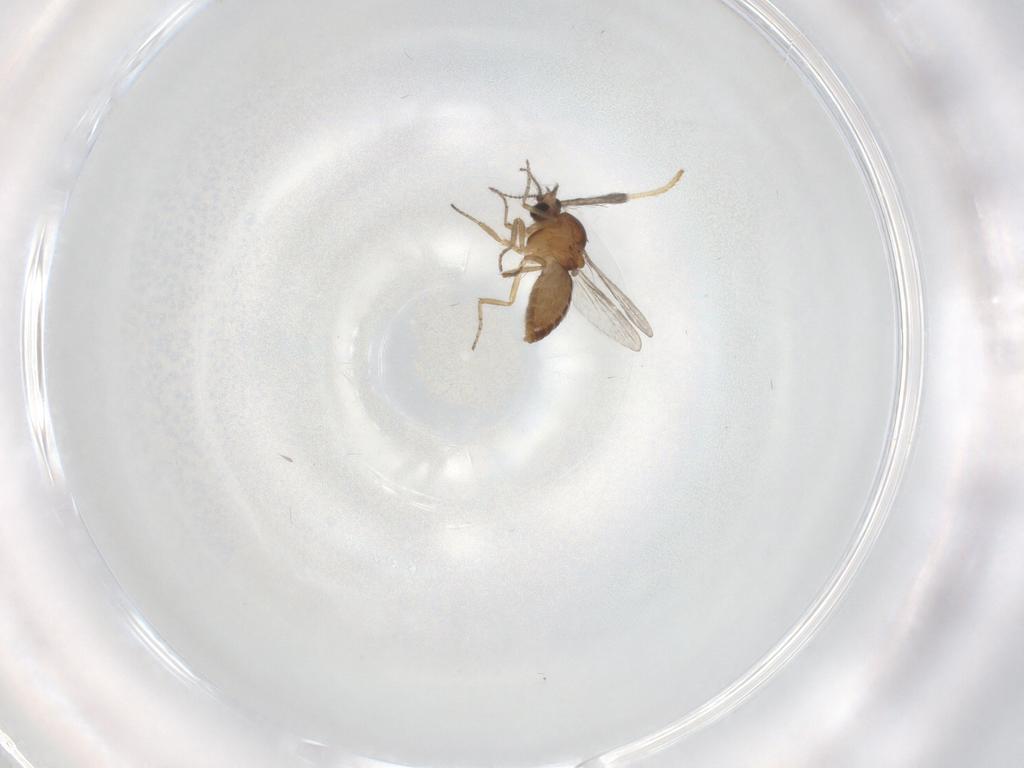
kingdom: Animalia
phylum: Arthropoda
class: Insecta
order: Diptera
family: Ceratopogonidae
